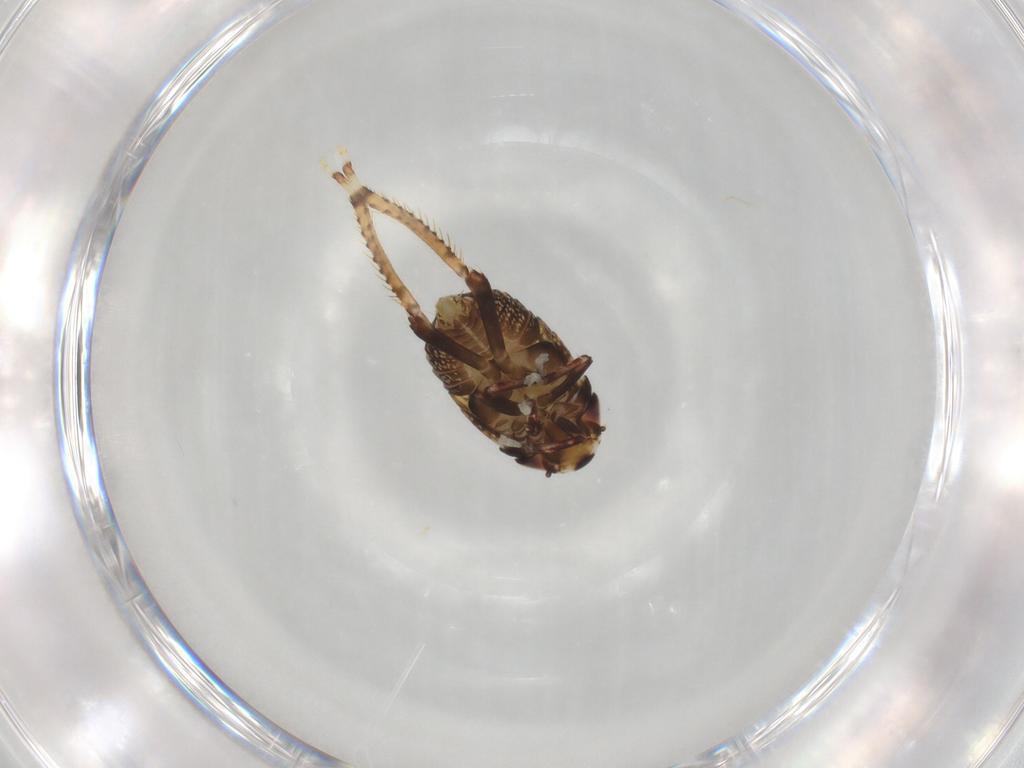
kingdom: Animalia
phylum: Arthropoda
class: Insecta
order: Hemiptera
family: Cicadellidae
